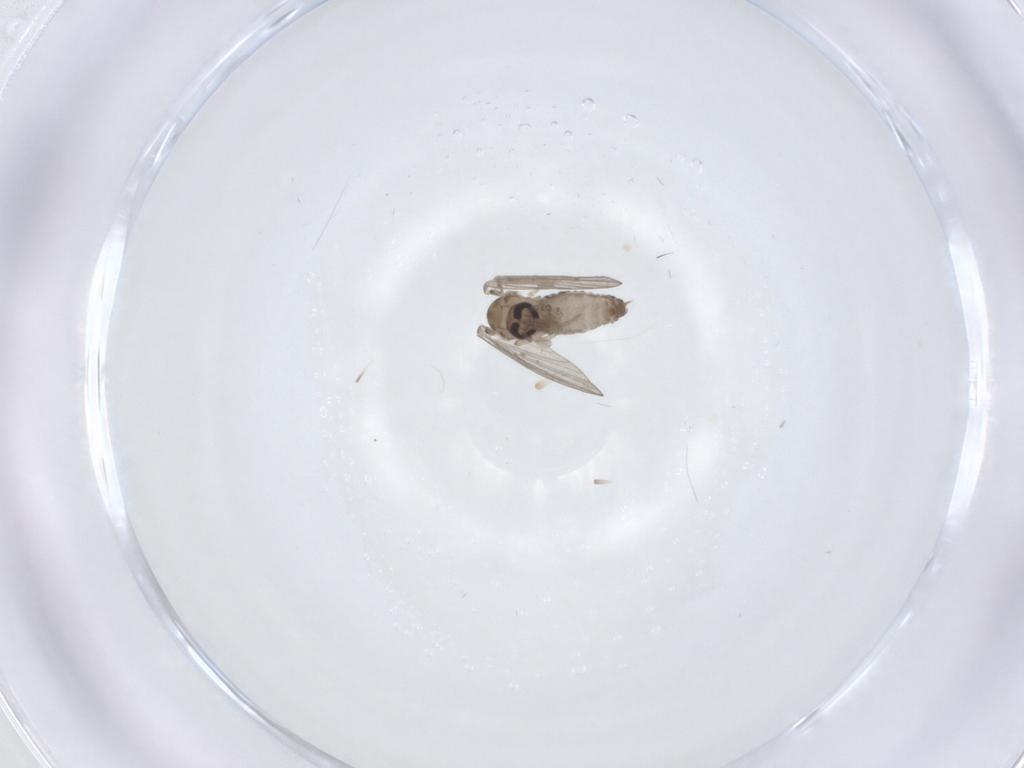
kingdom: Animalia
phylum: Arthropoda
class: Insecta
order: Diptera
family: Psychodidae
